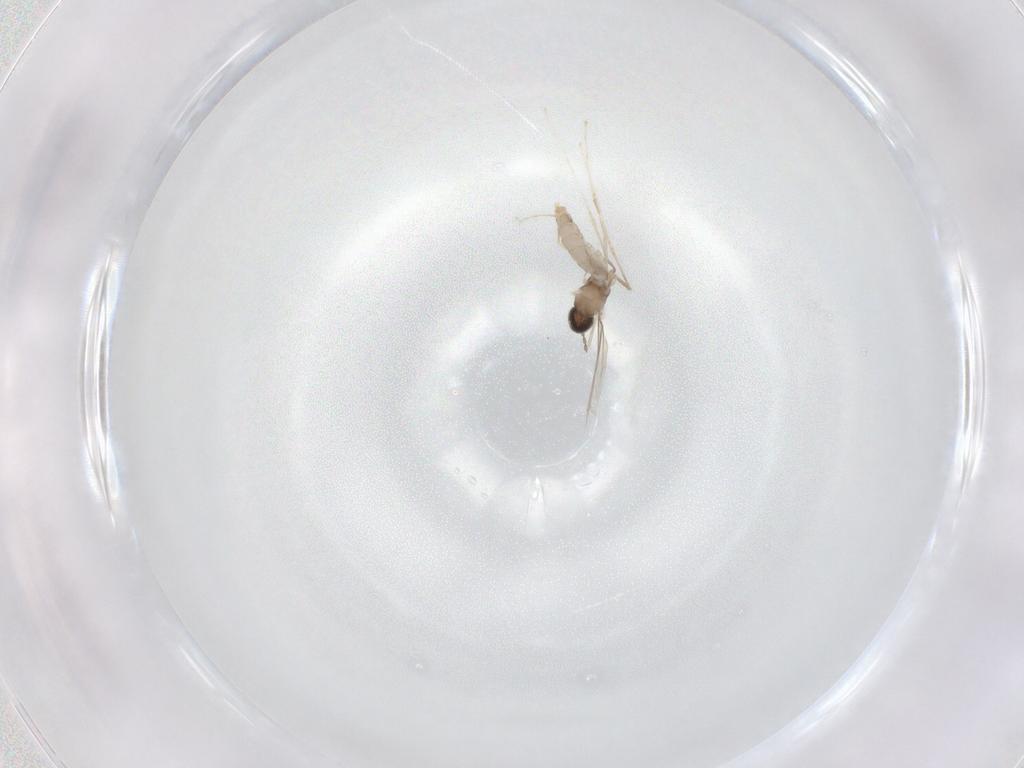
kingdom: Animalia
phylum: Arthropoda
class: Insecta
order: Diptera
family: Cecidomyiidae
